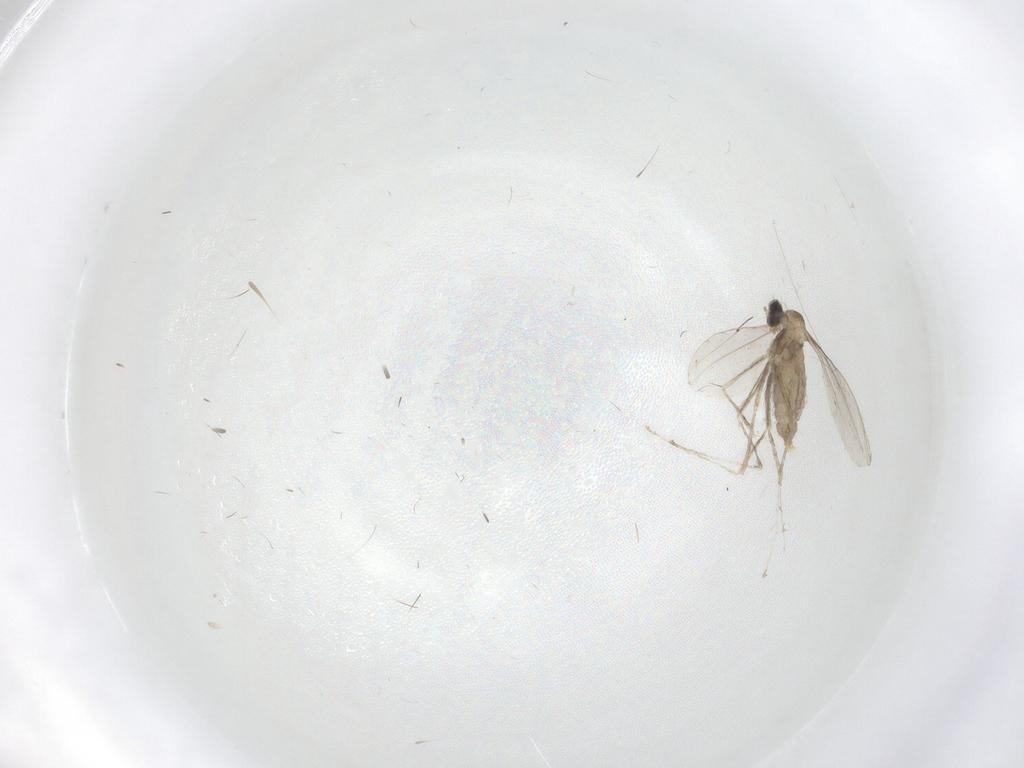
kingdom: Animalia
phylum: Arthropoda
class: Insecta
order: Diptera
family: Cecidomyiidae
